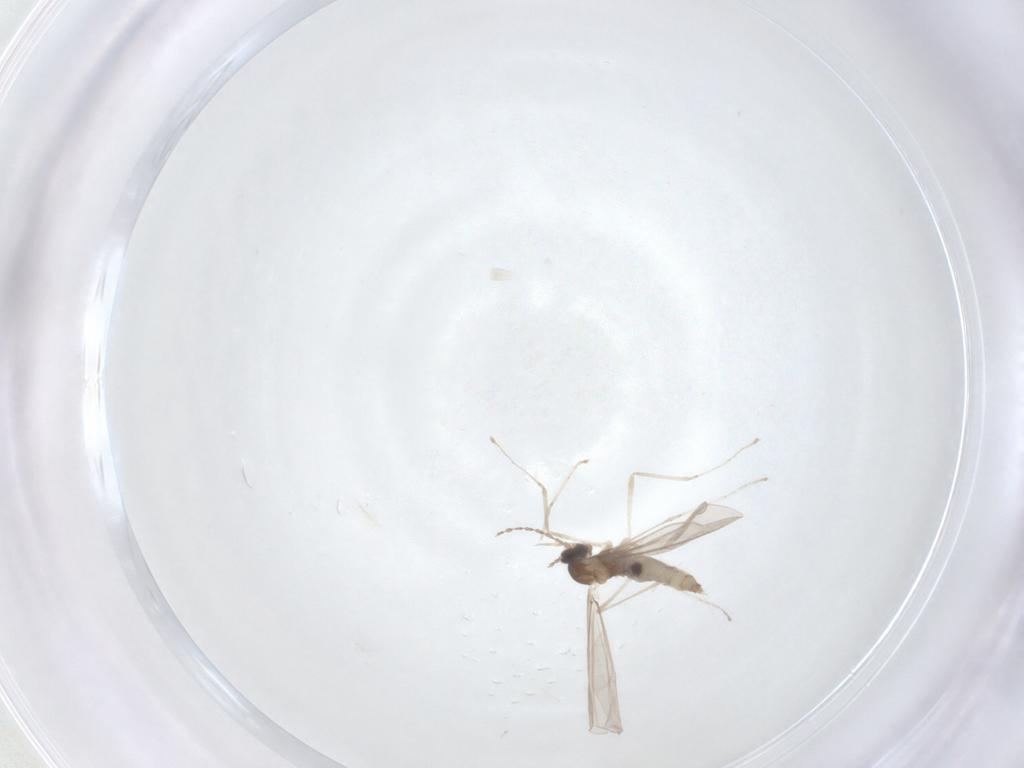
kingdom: Animalia
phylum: Arthropoda
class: Insecta
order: Diptera
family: Cecidomyiidae
